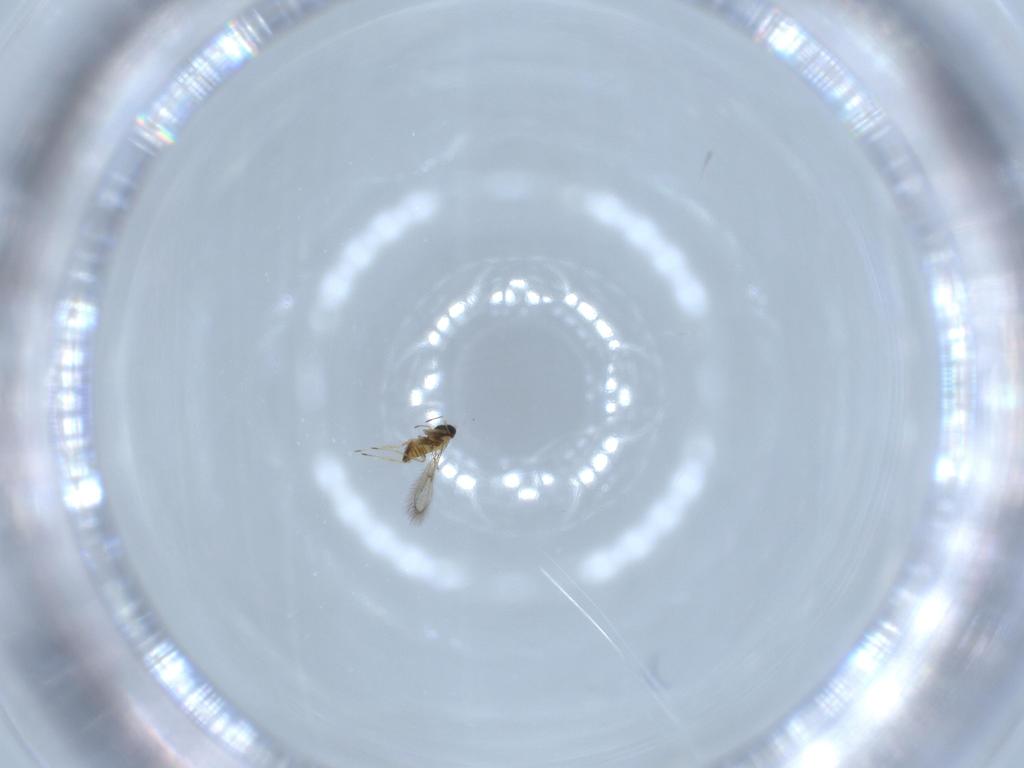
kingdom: Animalia
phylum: Arthropoda
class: Insecta
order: Hymenoptera
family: Trichogrammatidae
